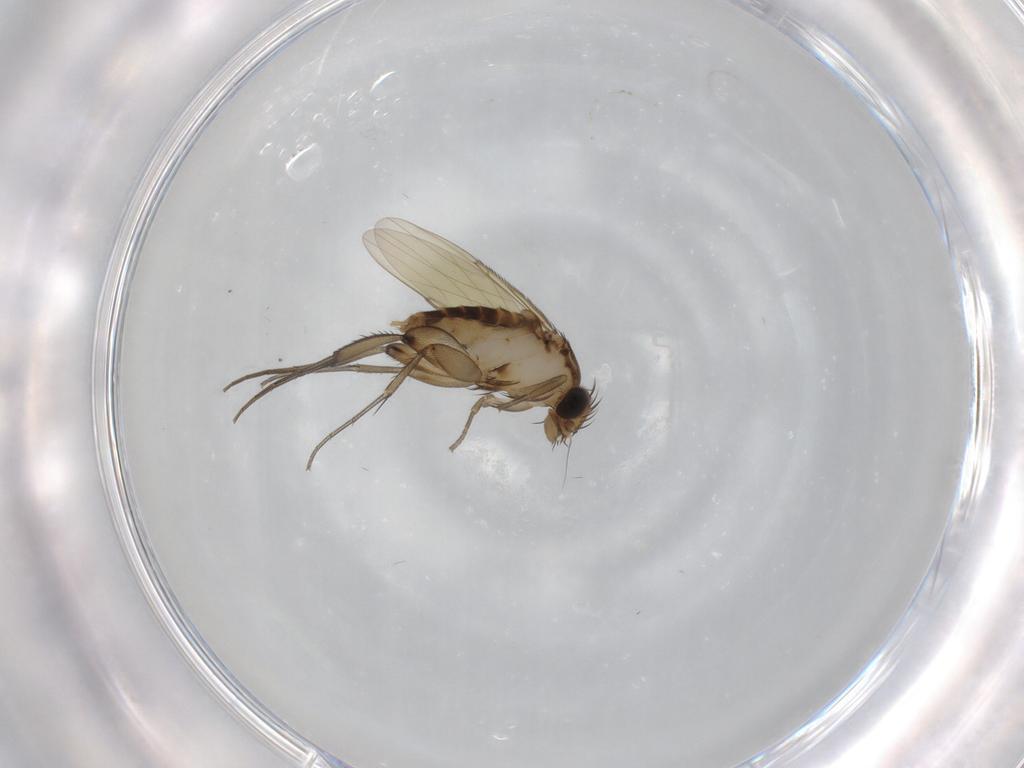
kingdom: Animalia
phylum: Arthropoda
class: Insecta
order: Diptera
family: Phoridae
